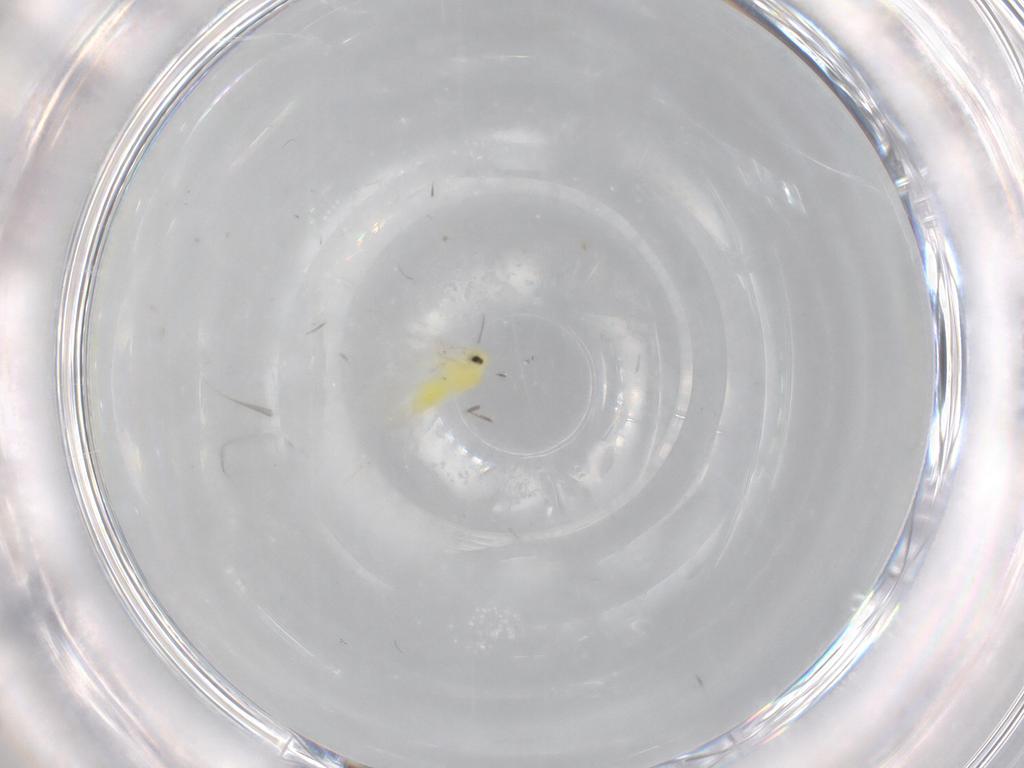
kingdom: Animalia
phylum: Arthropoda
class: Insecta
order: Hemiptera
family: Aleyrodidae
